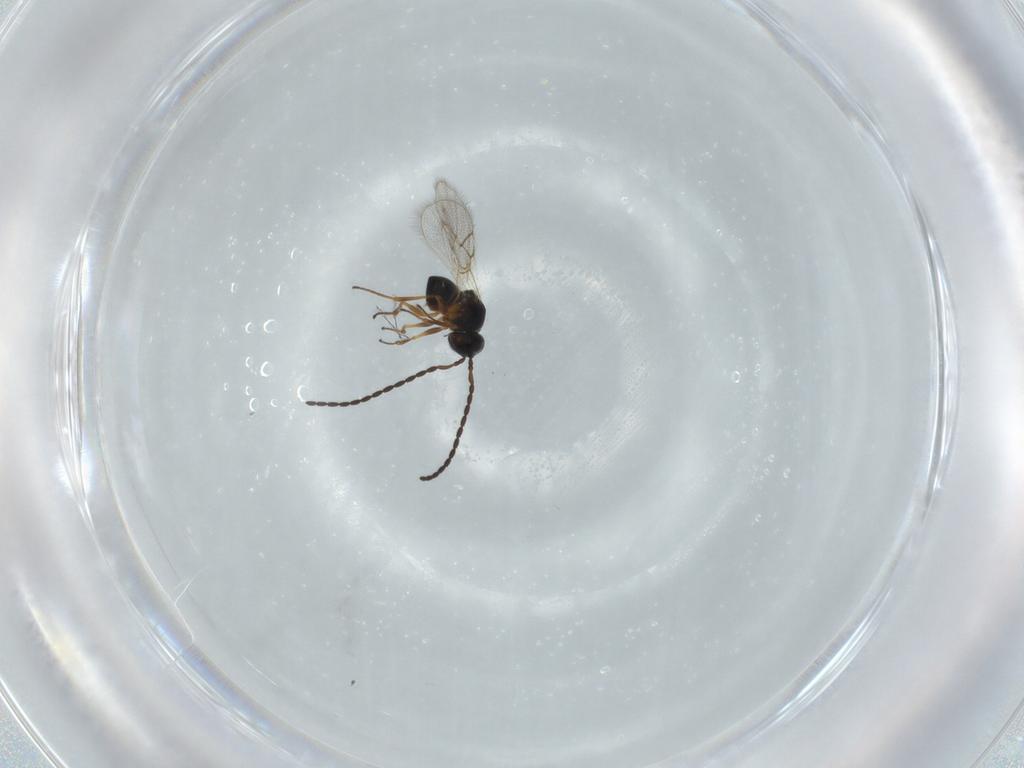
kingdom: Animalia
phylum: Arthropoda
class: Insecta
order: Hymenoptera
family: Figitidae
